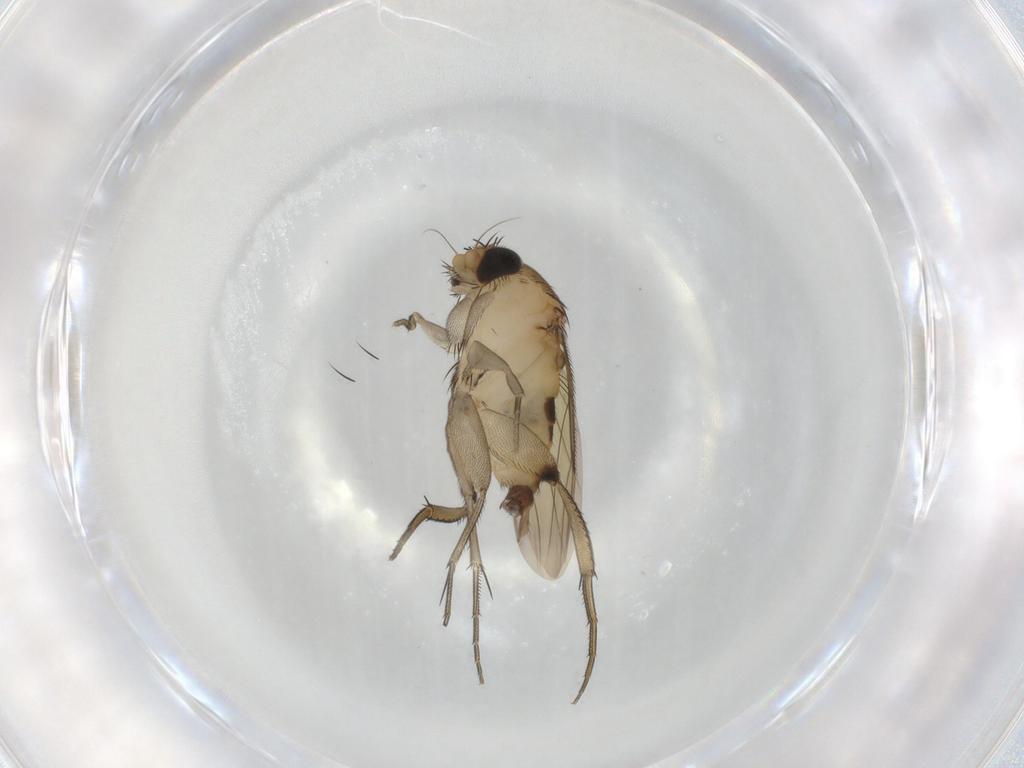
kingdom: Animalia
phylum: Arthropoda
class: Insecta
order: Diptera
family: Phoridae
